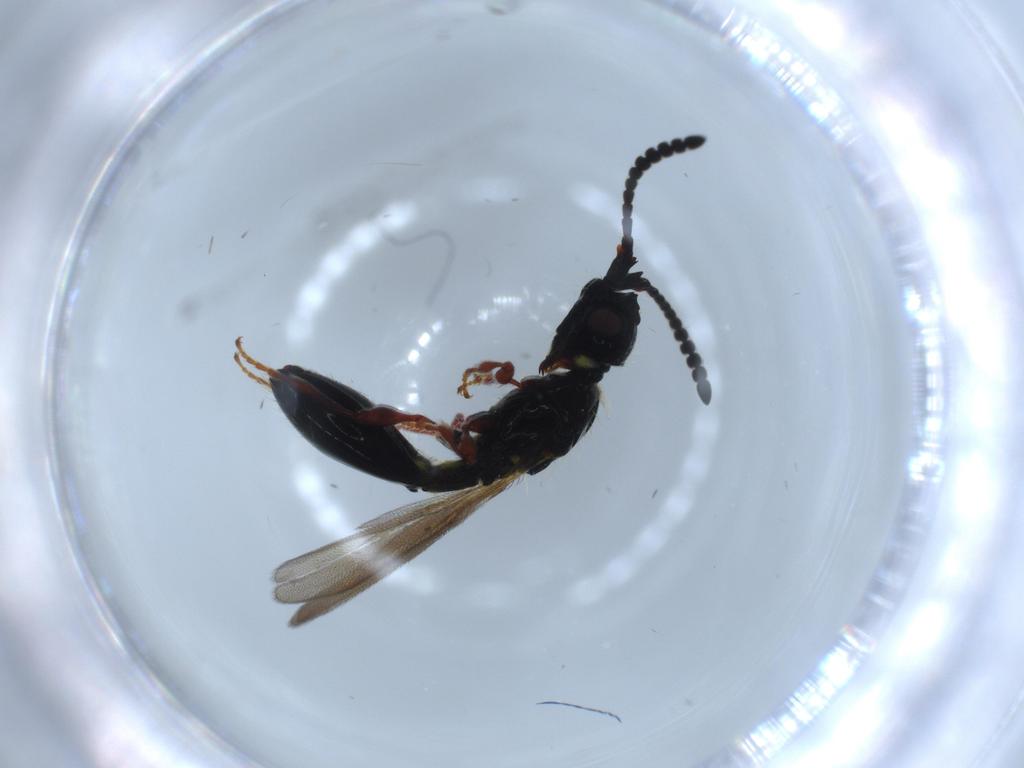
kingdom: Animalia
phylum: Arthropoda
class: Insecta
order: Hymenoptera
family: Diapriidae
